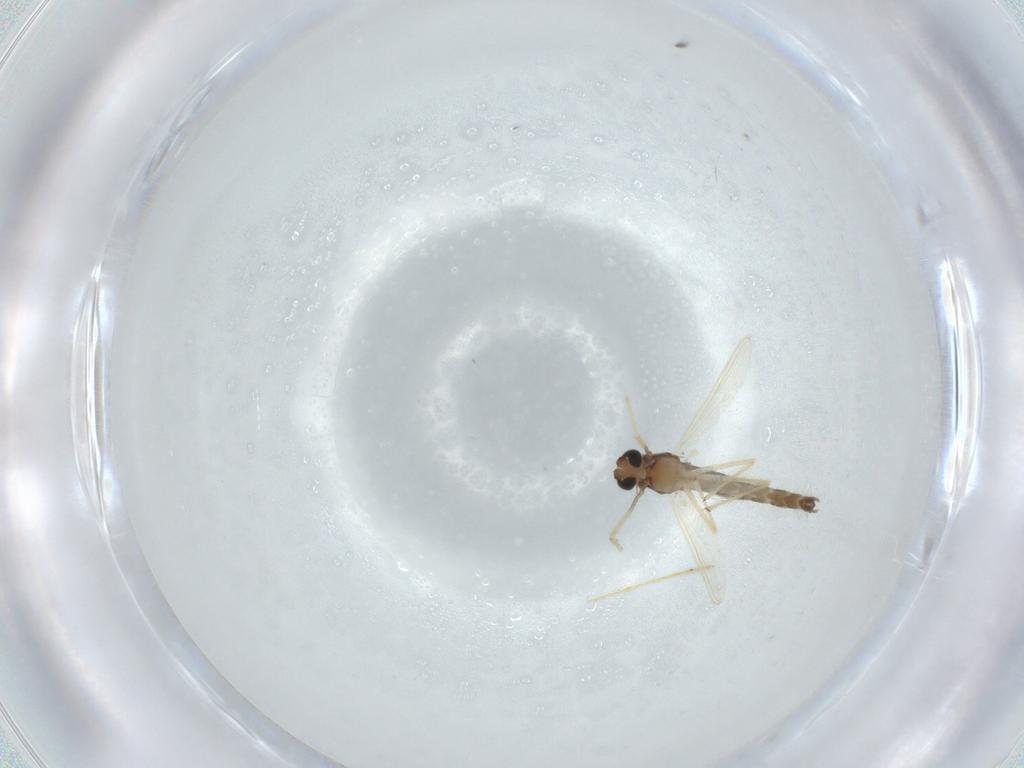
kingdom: Animalia
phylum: Arthropoda
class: Insecta
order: Diptera
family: Chironomidae
